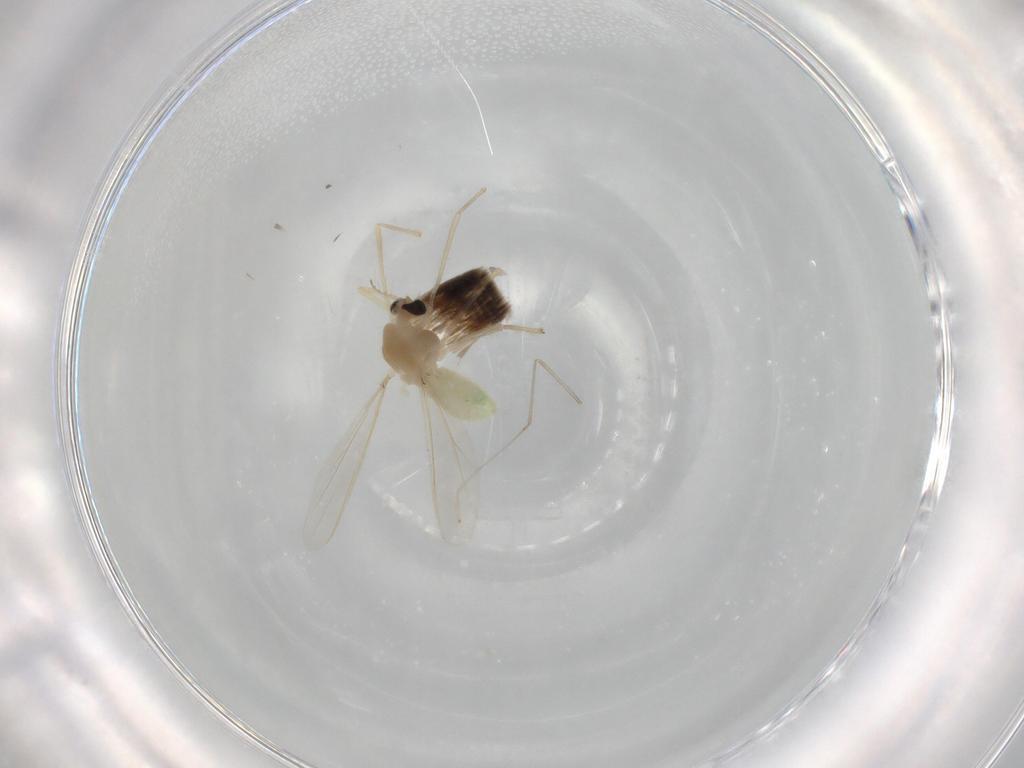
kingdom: Animalia
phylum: Arthropoda
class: Insecta
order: Diptera
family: Chironomidae
